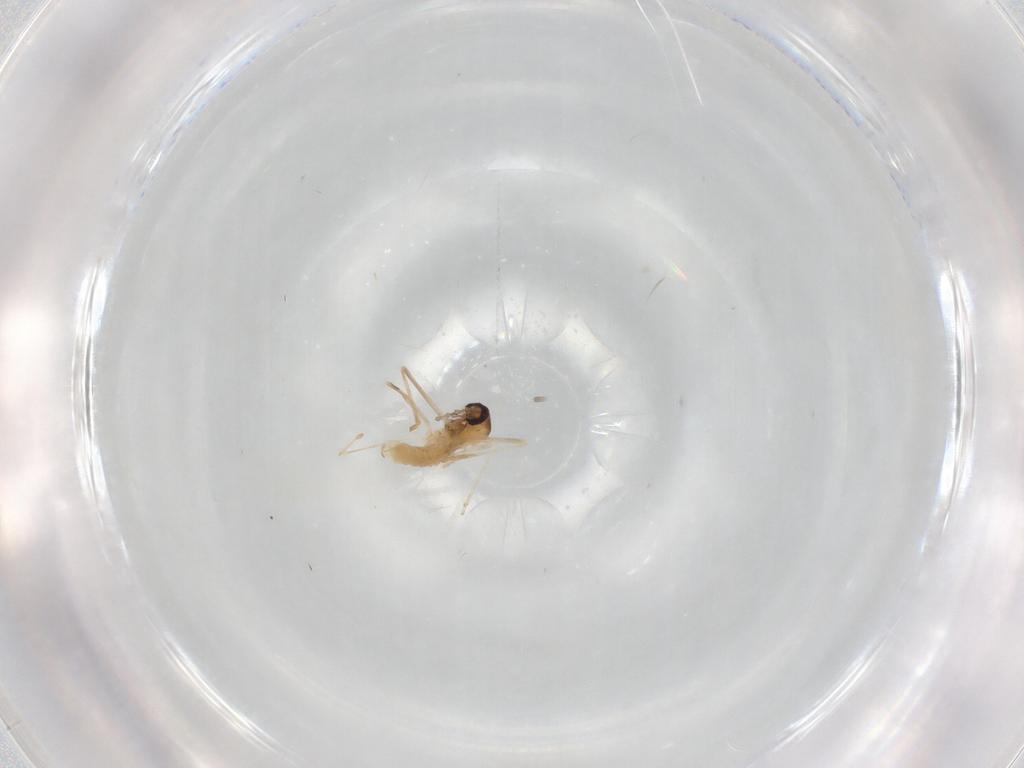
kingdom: Animalia
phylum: Arthropoda
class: Insecta
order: Diptera
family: Cecidomyiidae
